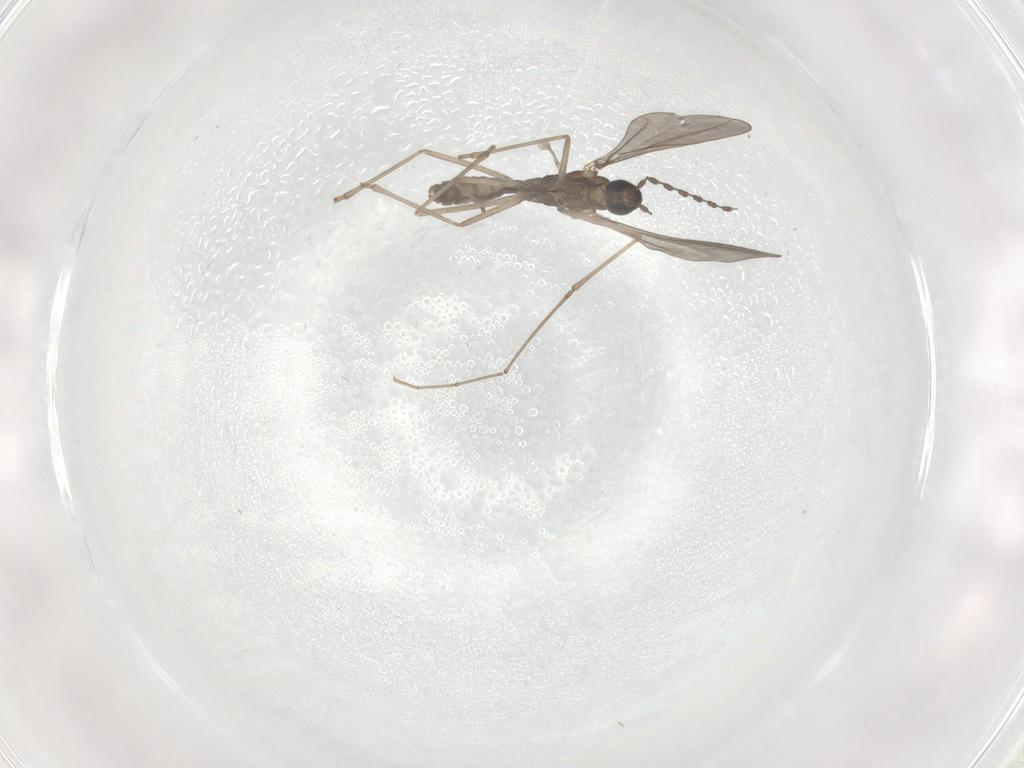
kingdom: Animalia
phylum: Arthropoda
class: Insecta
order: Diptera
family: Cecidomyiidae
